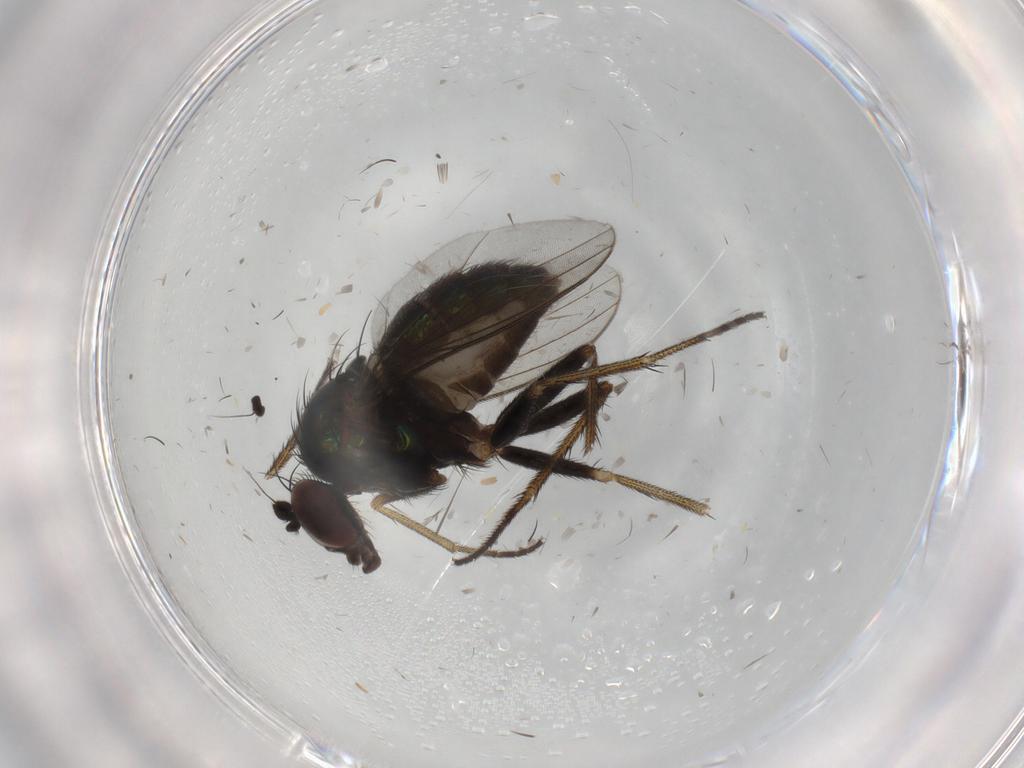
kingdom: Animalia
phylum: Arthropoda
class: Insecta
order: Diptera
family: Dolichopodidae
